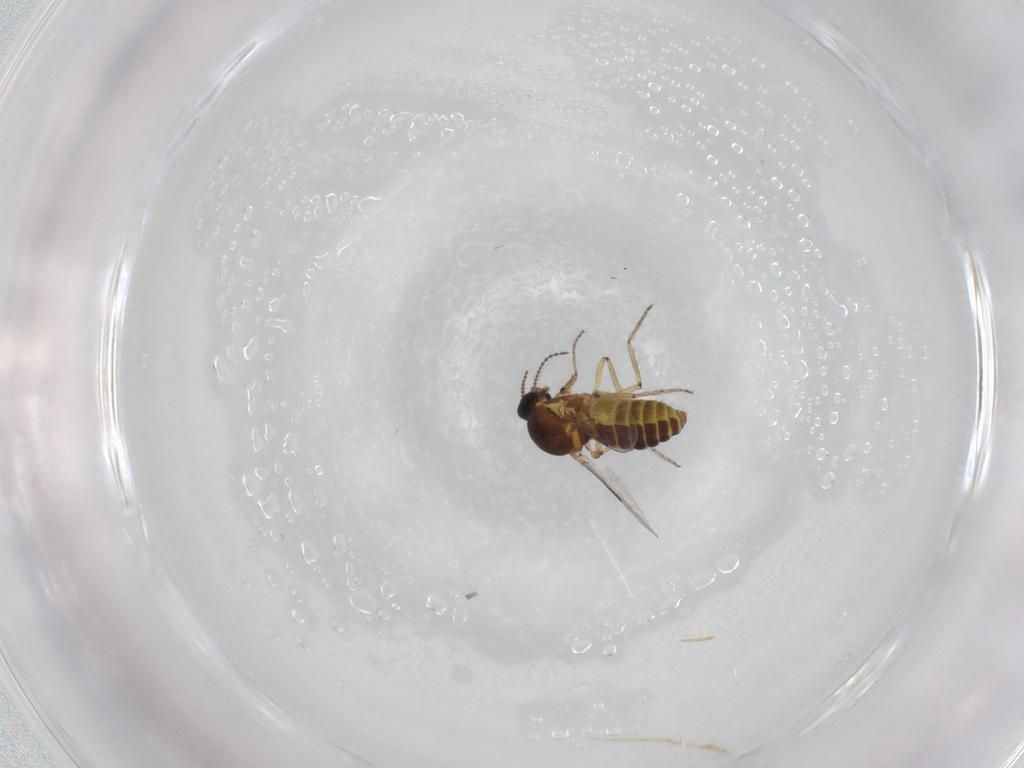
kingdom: Animalia
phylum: Arthropoda
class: Insecta
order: Diptera
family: Ceratopogonidae
